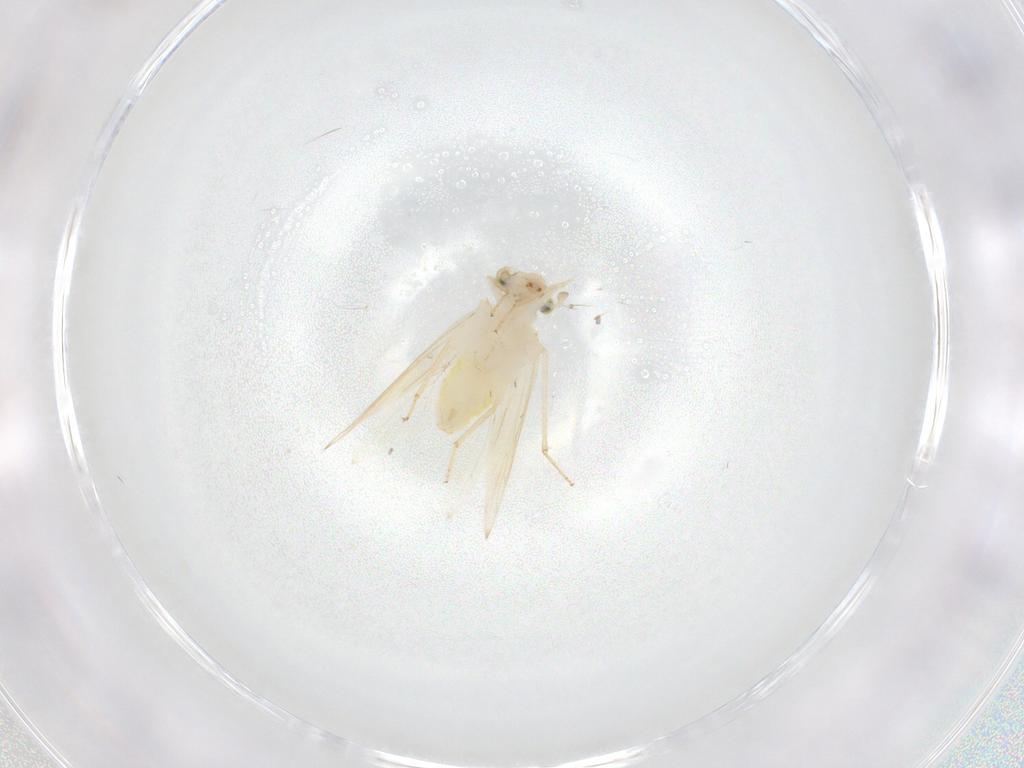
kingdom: Animalia
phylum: Arthropoda
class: Insecta
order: Psocodea
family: Lepidopsocidae
